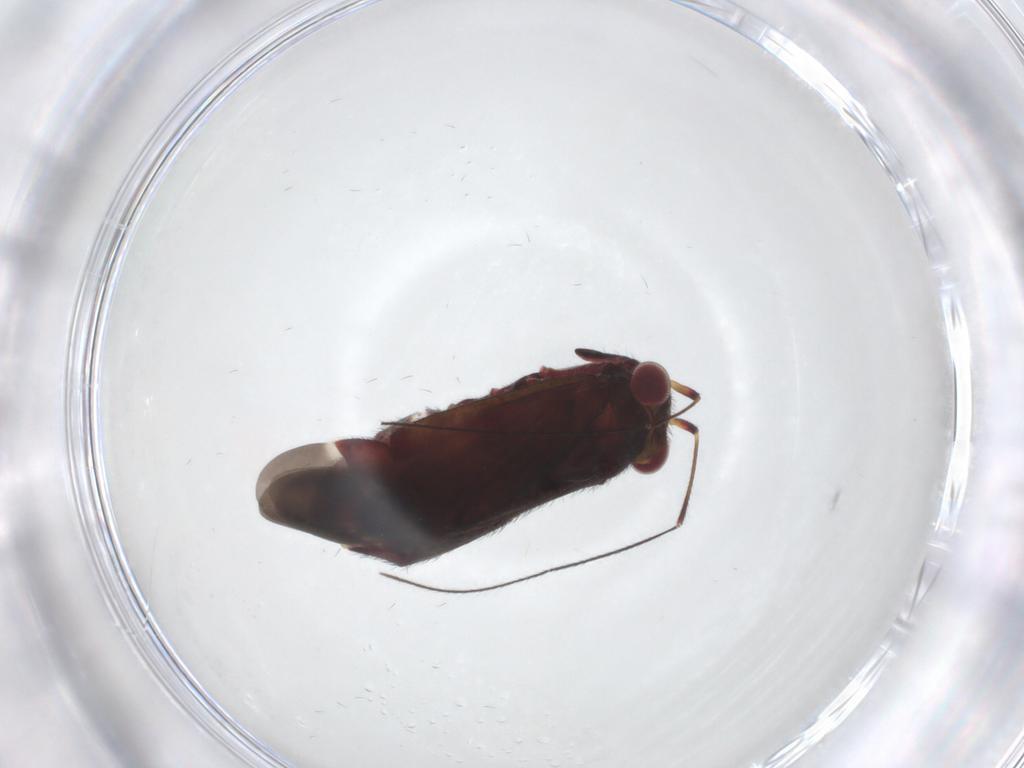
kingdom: Animalia
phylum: Arthropoda
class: Insecta
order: Hemiptera
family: Miridae
